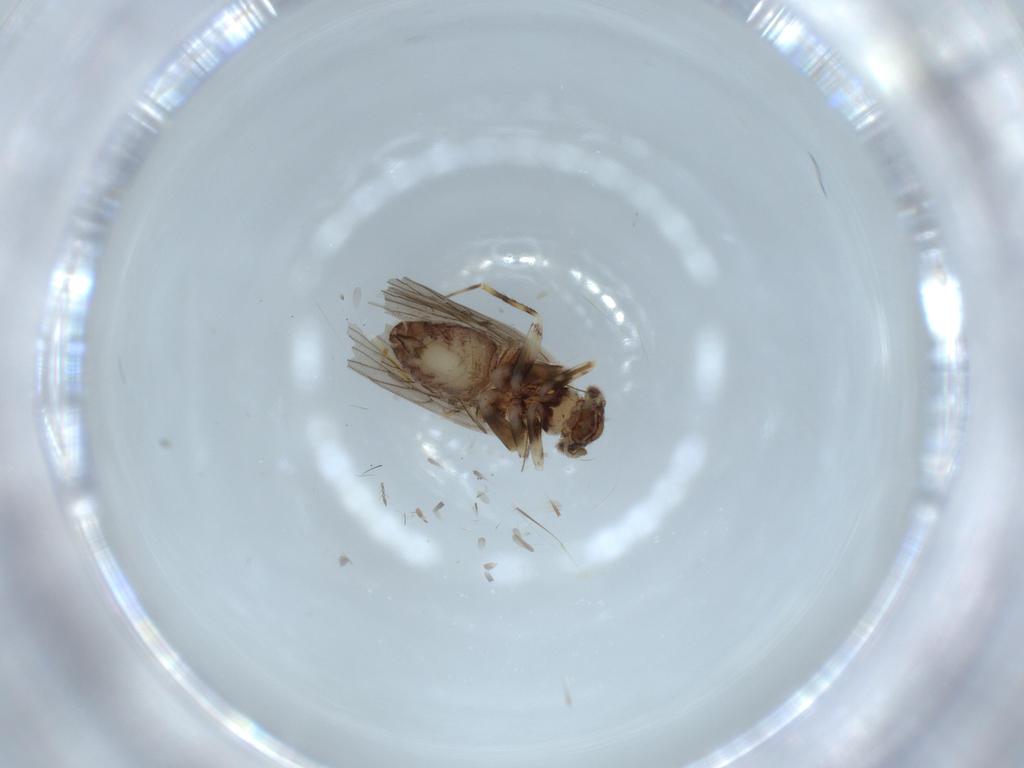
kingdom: Animalia
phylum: Arthropoda
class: Insecta
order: Psocodea
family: Lepidopsocidae
